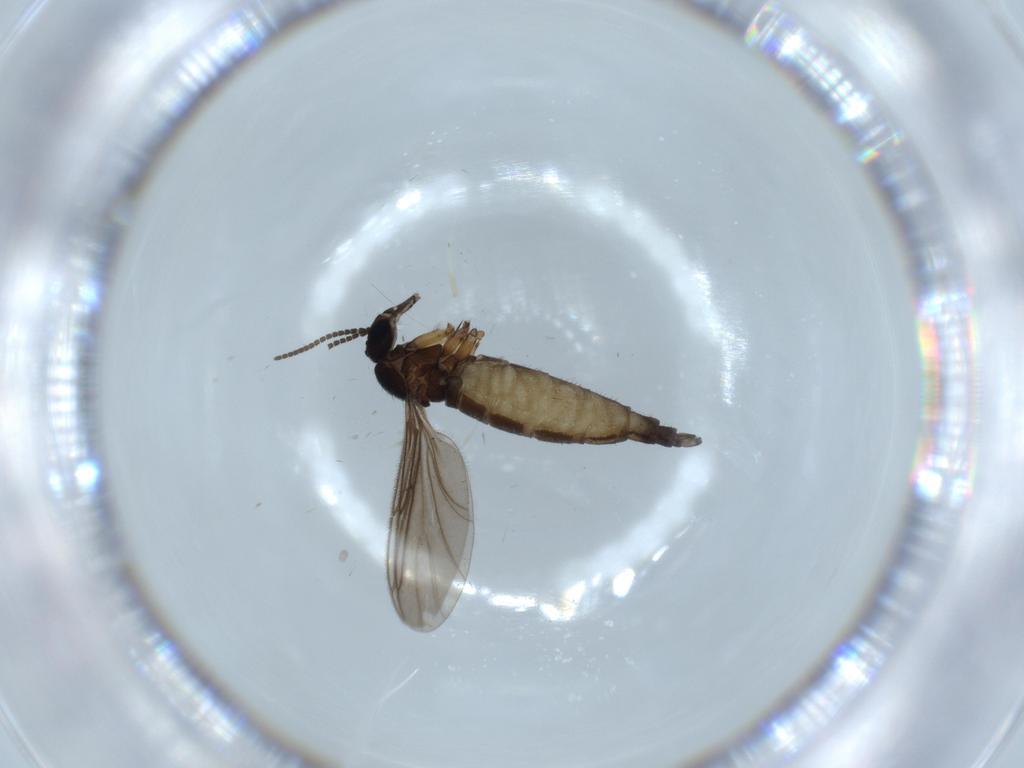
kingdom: Animalia
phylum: Arthropoda
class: Insecta
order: Diptera
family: Sciaridae
